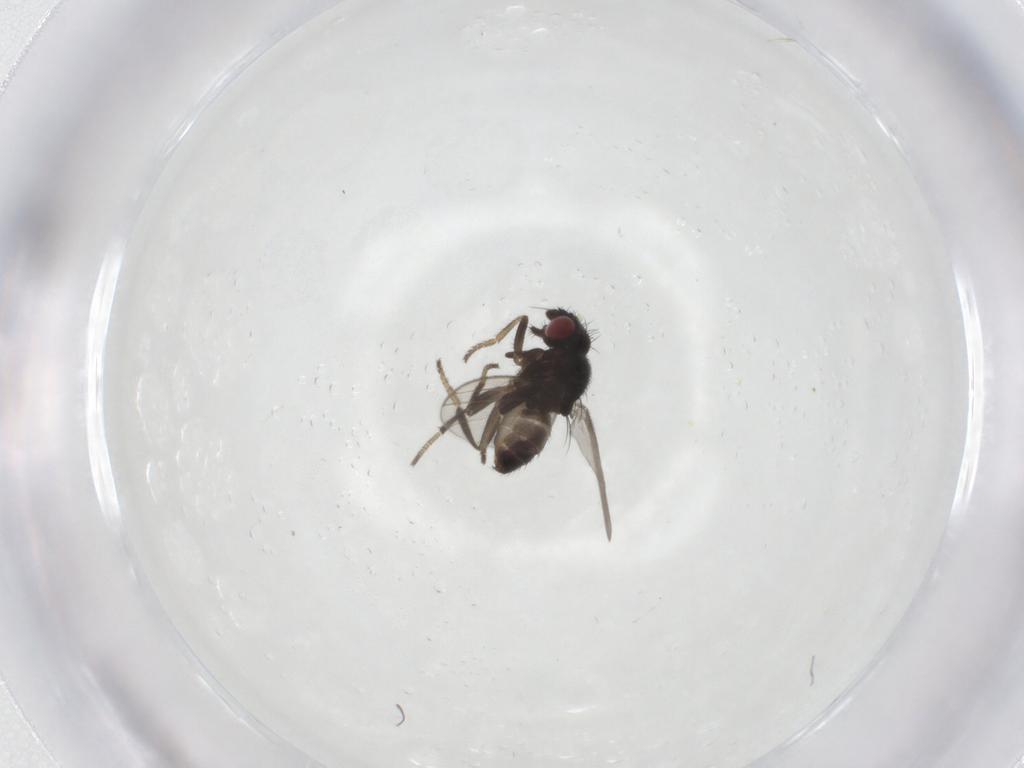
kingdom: Animalia
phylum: Arthropoda
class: Insecta
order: Diptera
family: Milichiidae
